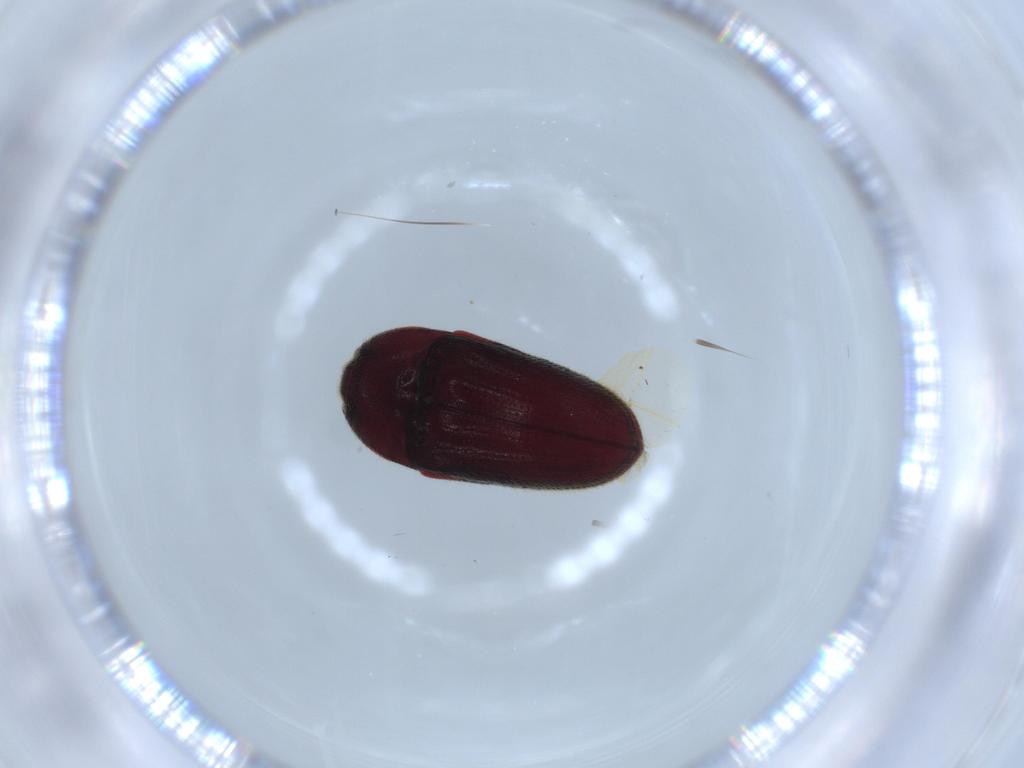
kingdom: Animalia
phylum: Arthropoda
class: Insecta
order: Coleoptera
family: Throscidae
